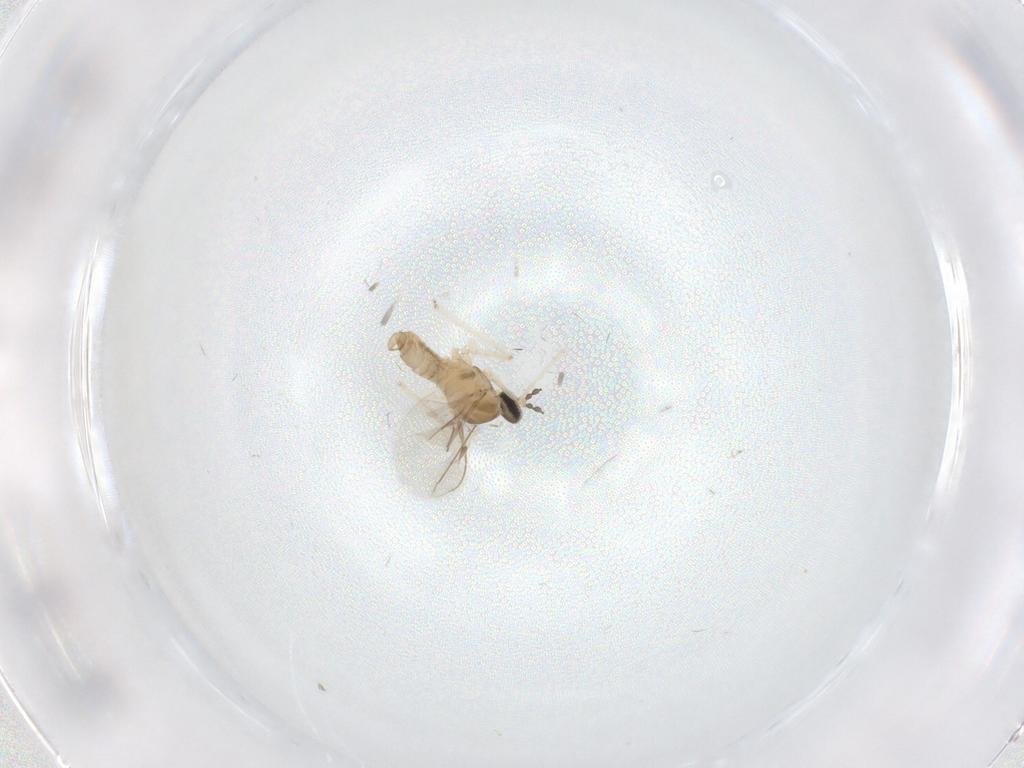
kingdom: Animalia
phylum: Arthropoda
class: Insecta
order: Diptera
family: Cecidomyiidae
